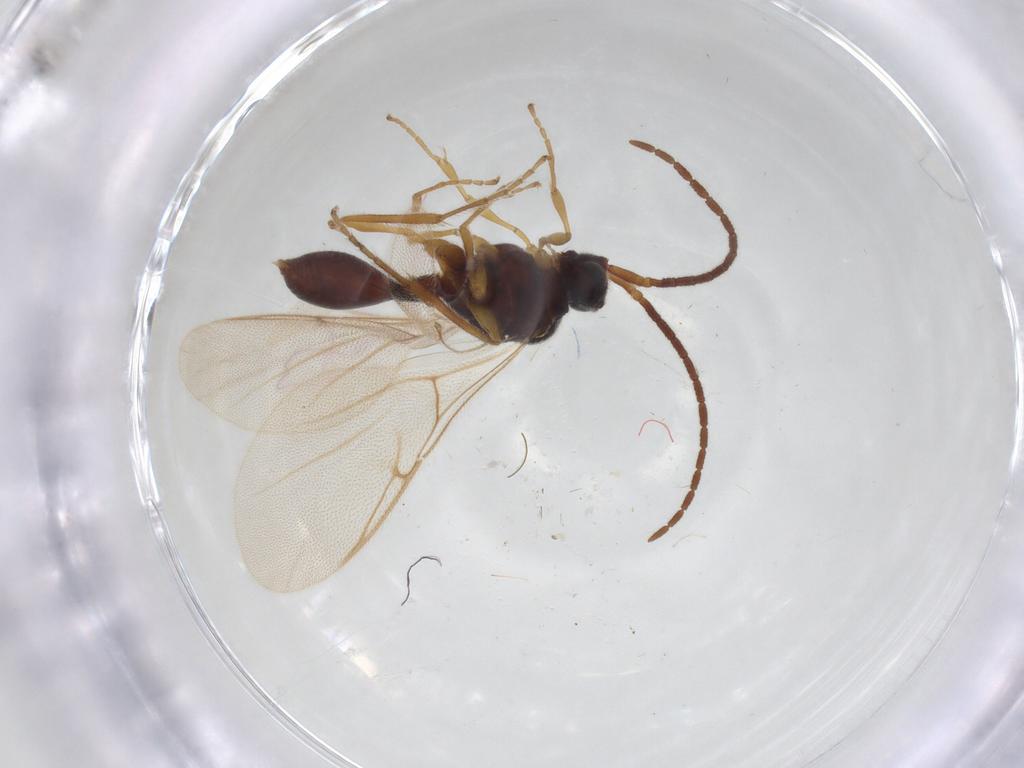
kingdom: Animalia
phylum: Arthropoda
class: Insecta
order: Hymenoptera
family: Diapriidae
